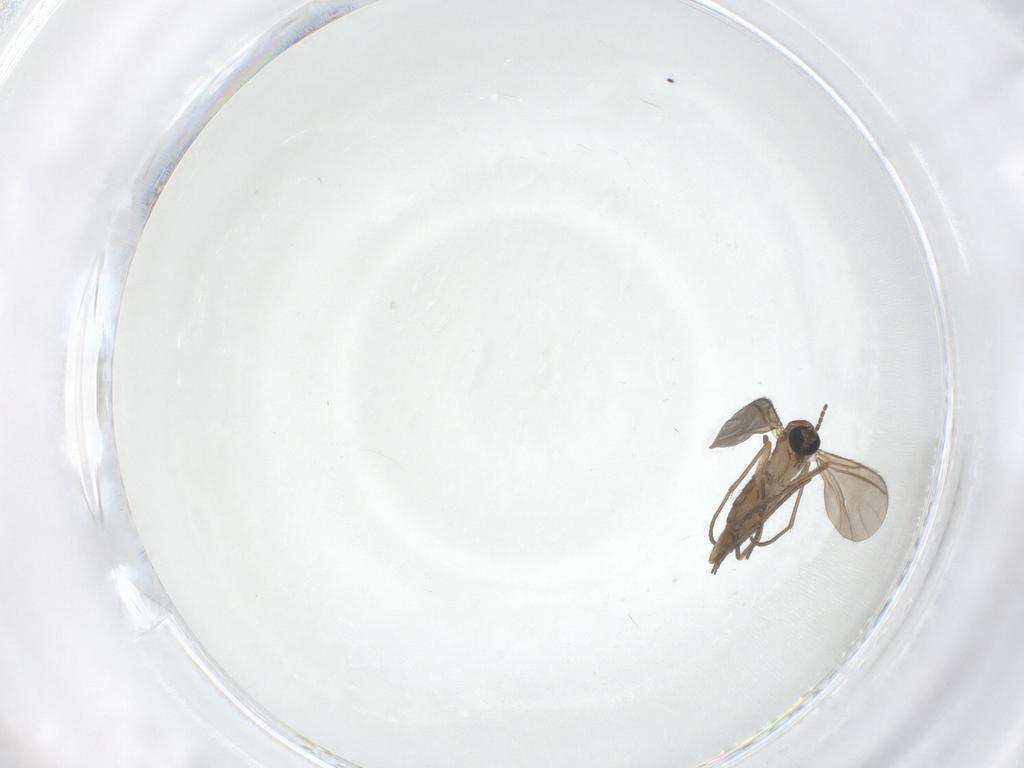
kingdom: Animalia
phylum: Arthropoda
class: Insecta
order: Diptera
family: Sciaridae
